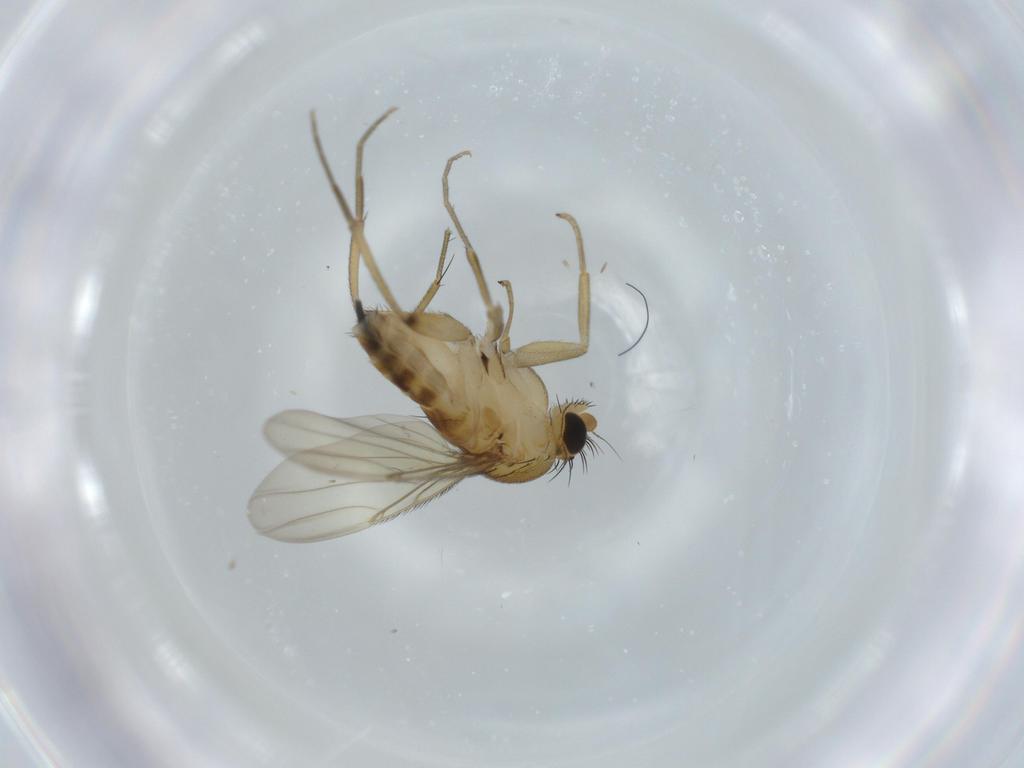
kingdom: Animalia
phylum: Arthropoda
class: Insecta
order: Diptera
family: Phoridae
